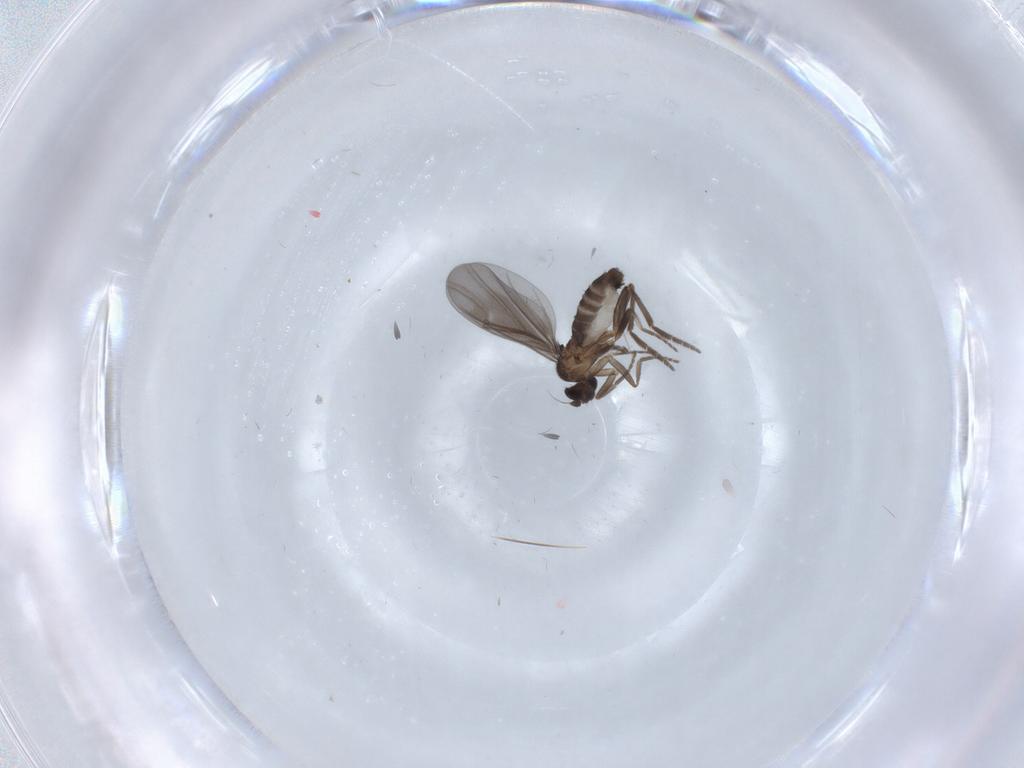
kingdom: Animalia
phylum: Arthropoda
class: Insecta
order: Diptera
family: Phoridae
